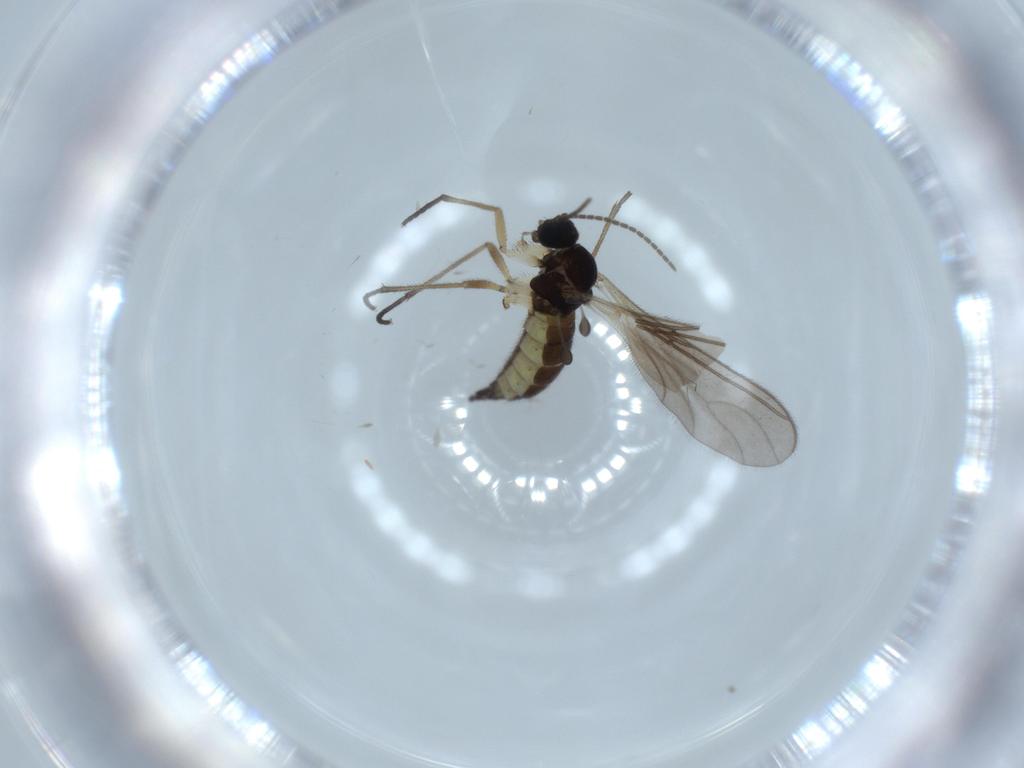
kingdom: Animalia
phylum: Arthropoda
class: Insecta
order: Diptera
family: Sciaridae
